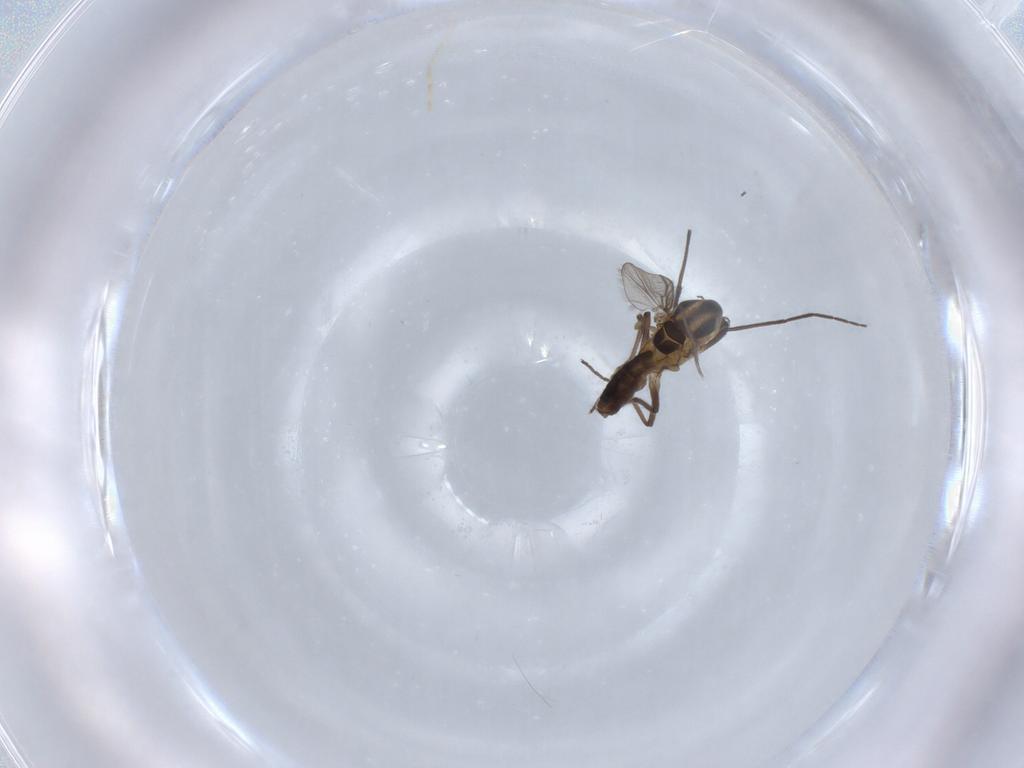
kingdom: Animalia
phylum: Arthropoda
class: Insecta
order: Diptera
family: Chironomidae
